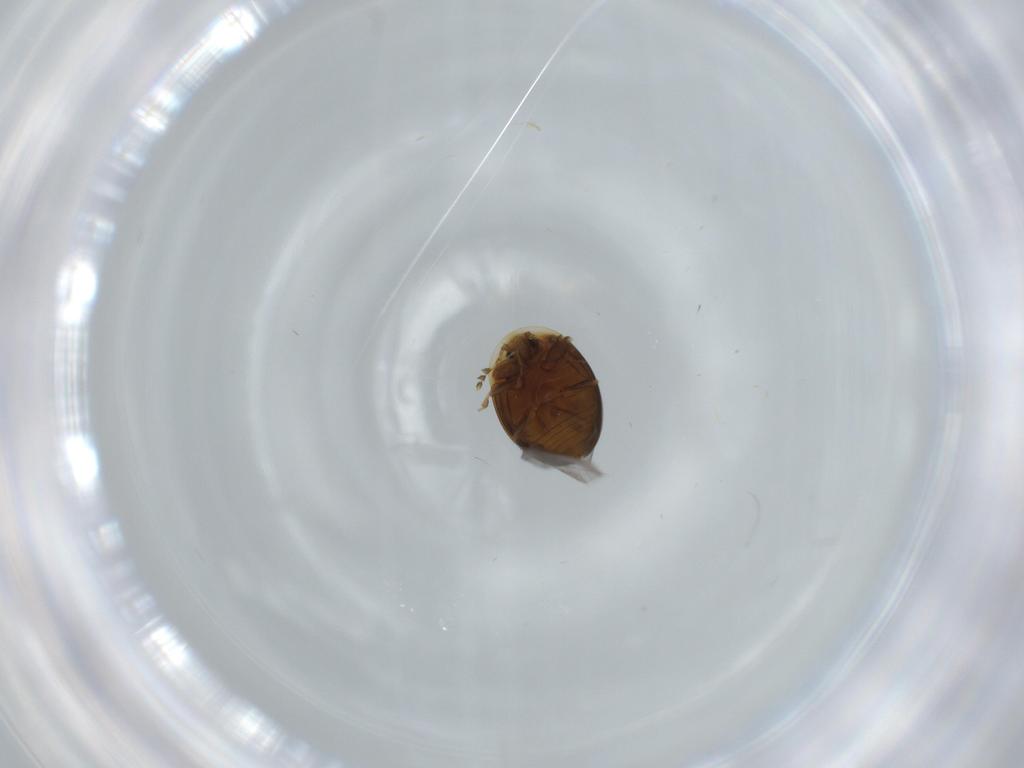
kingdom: Animalia
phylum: Arthropoda
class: Insecta
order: Coleoptera
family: Corylophidae
